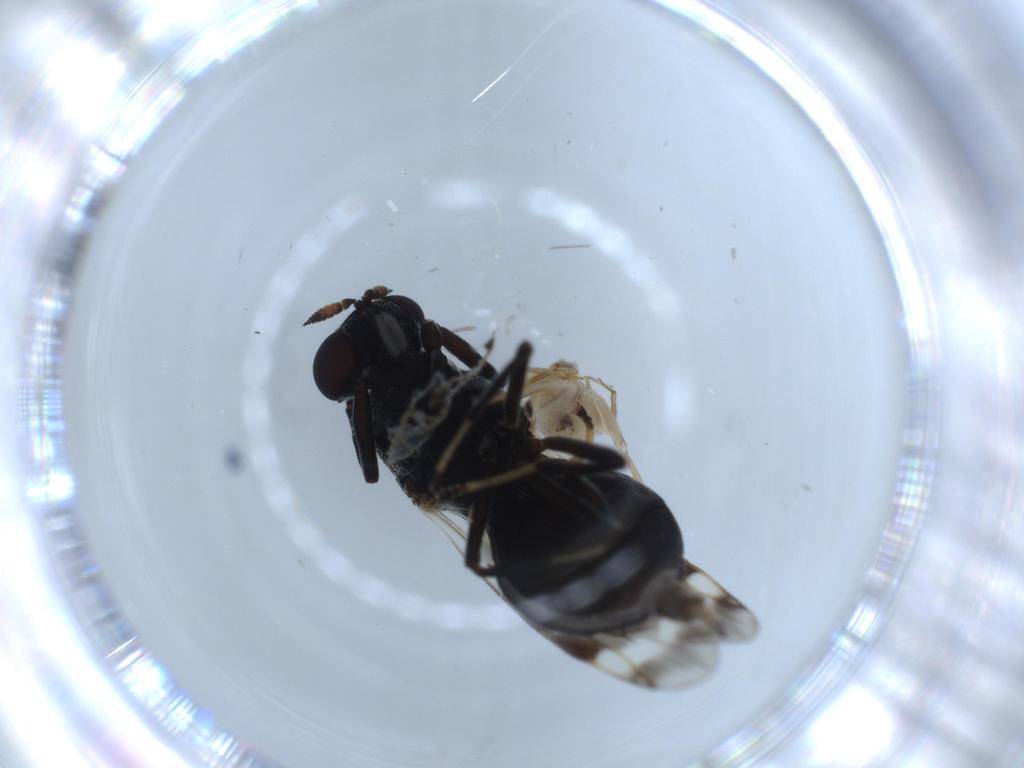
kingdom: Animalia
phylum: Arthropoda
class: Insecta
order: Diptera
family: Stratiomyidae
